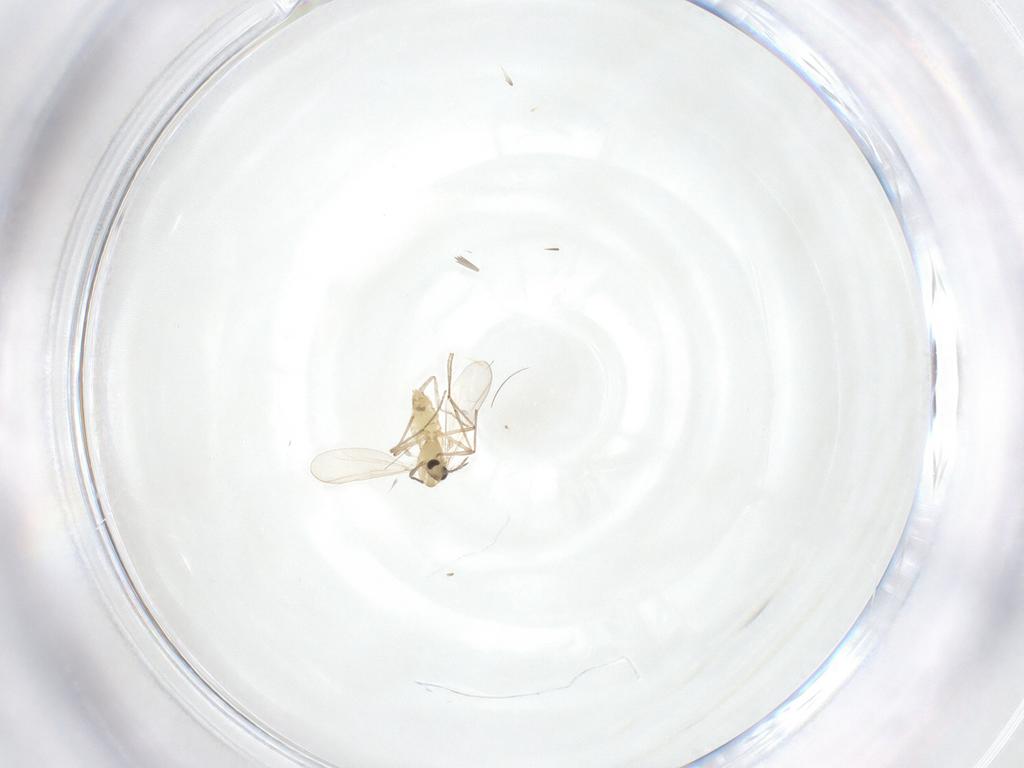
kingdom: Animalia
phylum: Arthropoda
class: Insecta
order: Diptera
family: Cecidomyiidae
